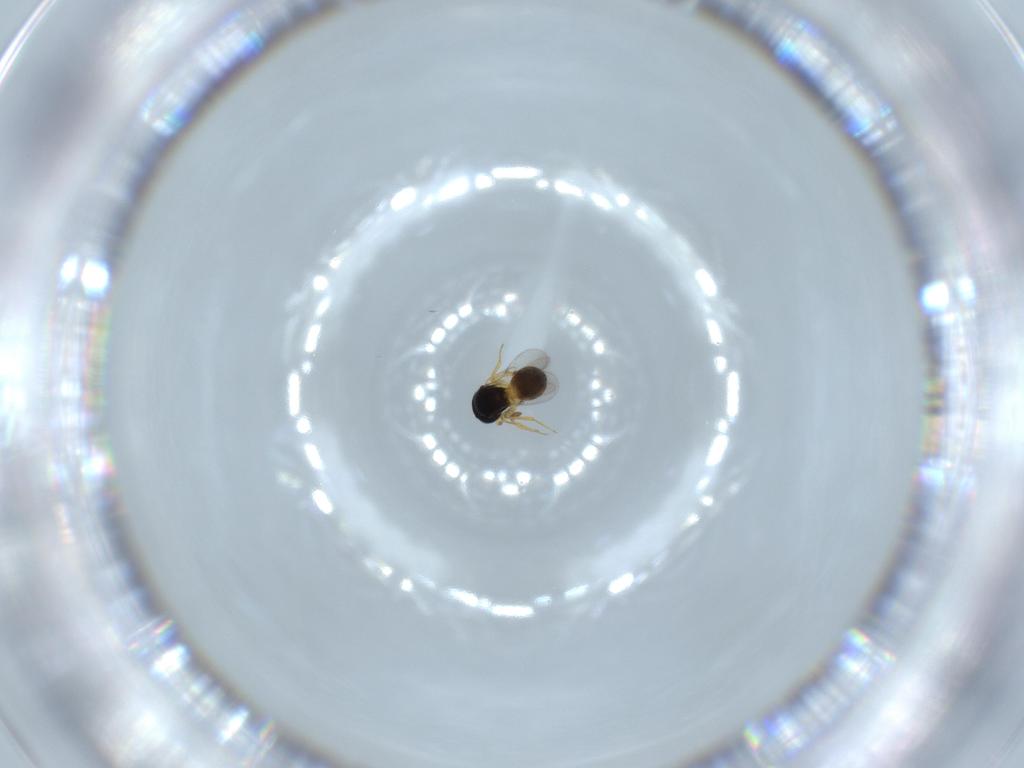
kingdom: Animalia
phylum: Arthropoda
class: Insecta
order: Hymenoptera
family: Scelionidae
